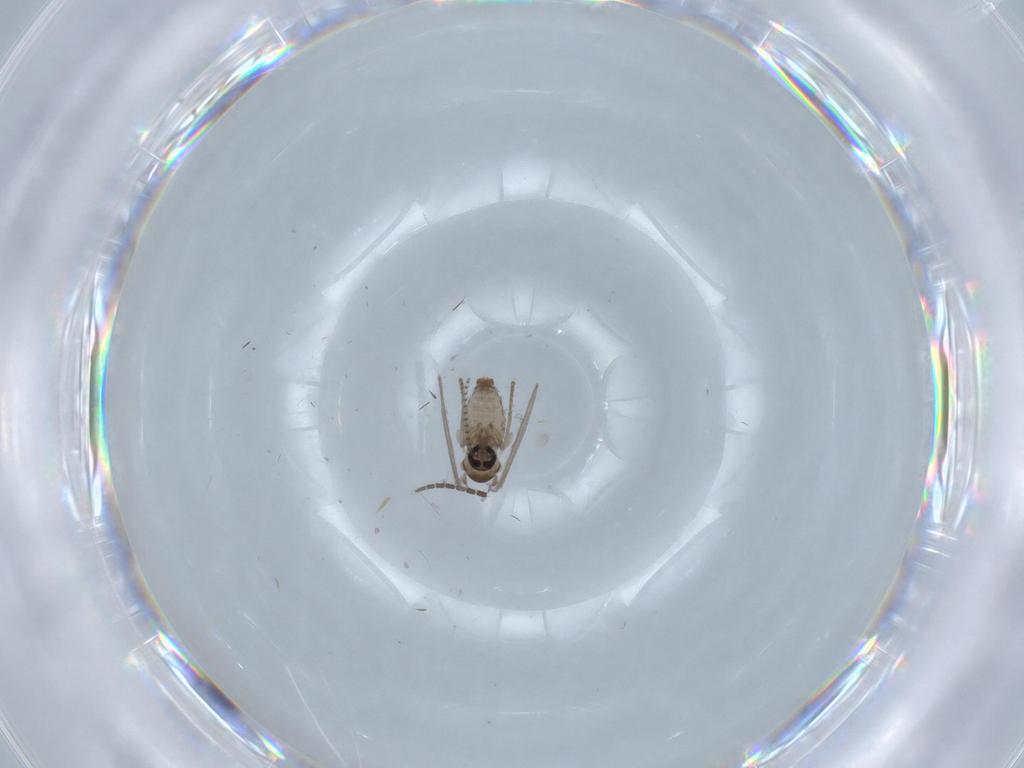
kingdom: Animalia
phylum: Arthropoda
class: Insecta
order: Diptera
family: Psychodidae
